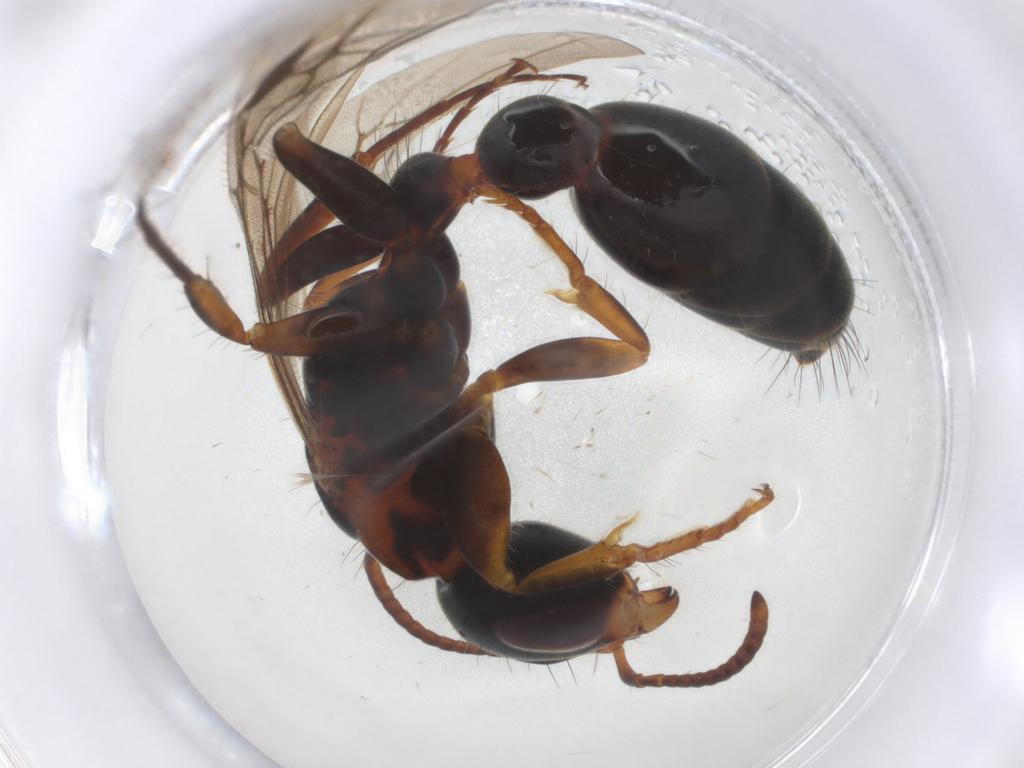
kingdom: Animalia
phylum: Arthropoda
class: Insecta
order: Hymenoptera
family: Formicidae
